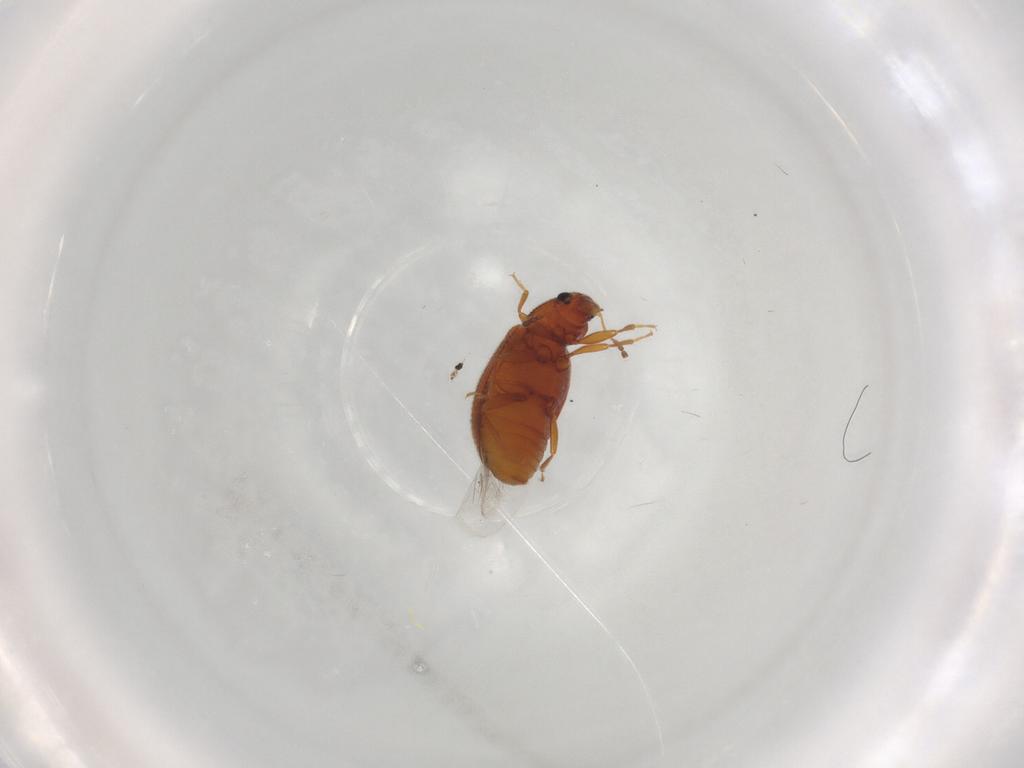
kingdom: Animalia
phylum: Arthropoda
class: Insecta
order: Coleoptera
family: Latridiidae
